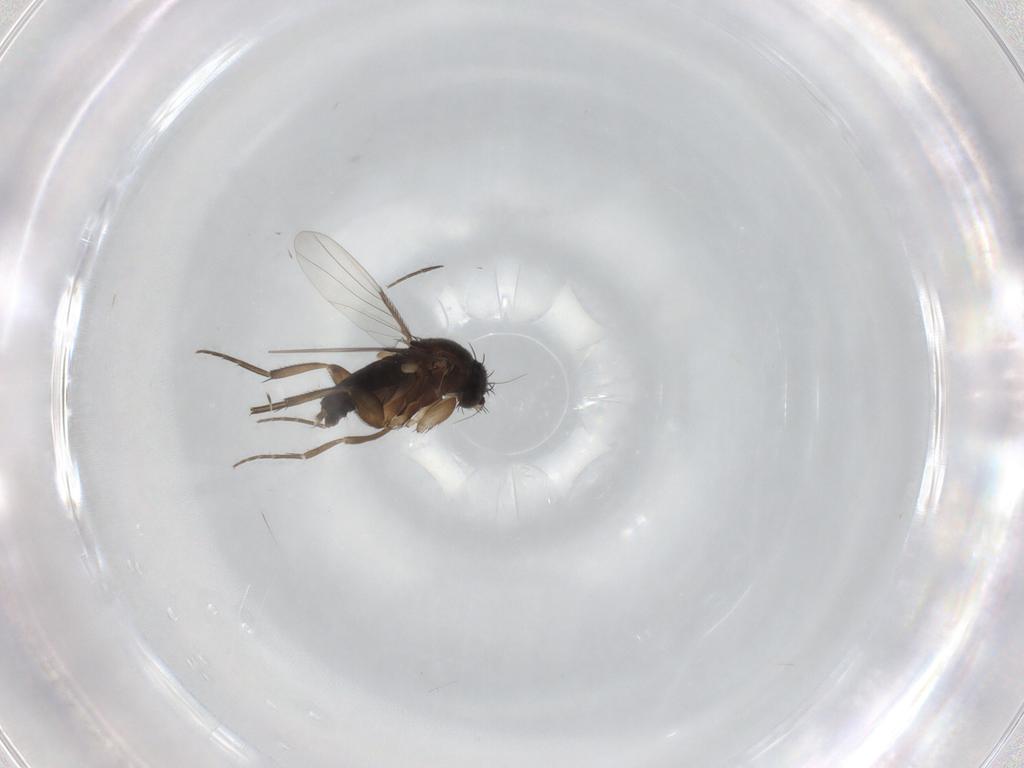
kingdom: Animalia
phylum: Arthropoda
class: Insecta
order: Diptera
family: Phoridae
